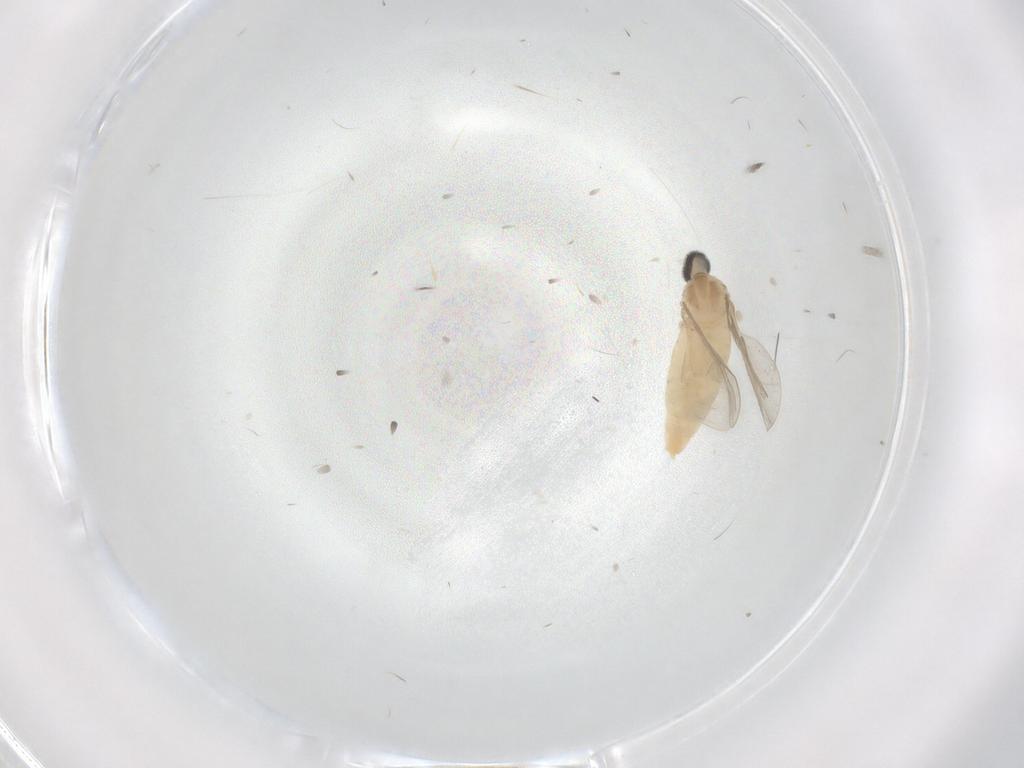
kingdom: Animalia
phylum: Arthropoda
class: Insecta
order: Diptera
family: Cecidomyiidae
